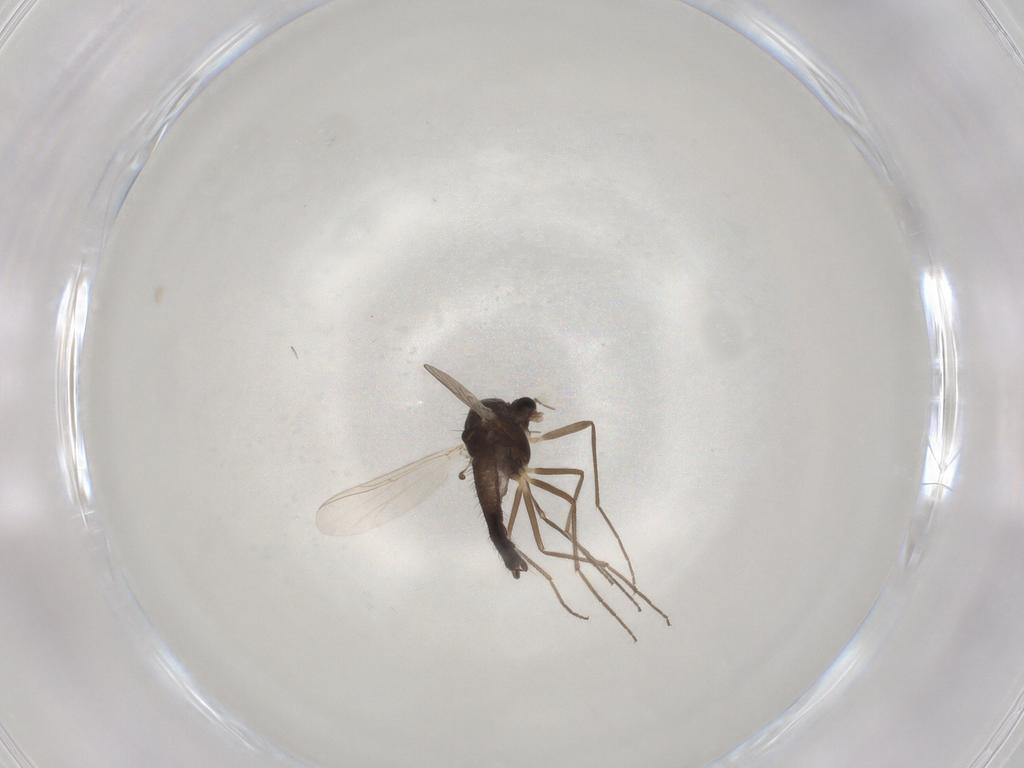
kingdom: Animalia
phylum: Arthropoda
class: Insecta
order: Diptera
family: Chironomidae
